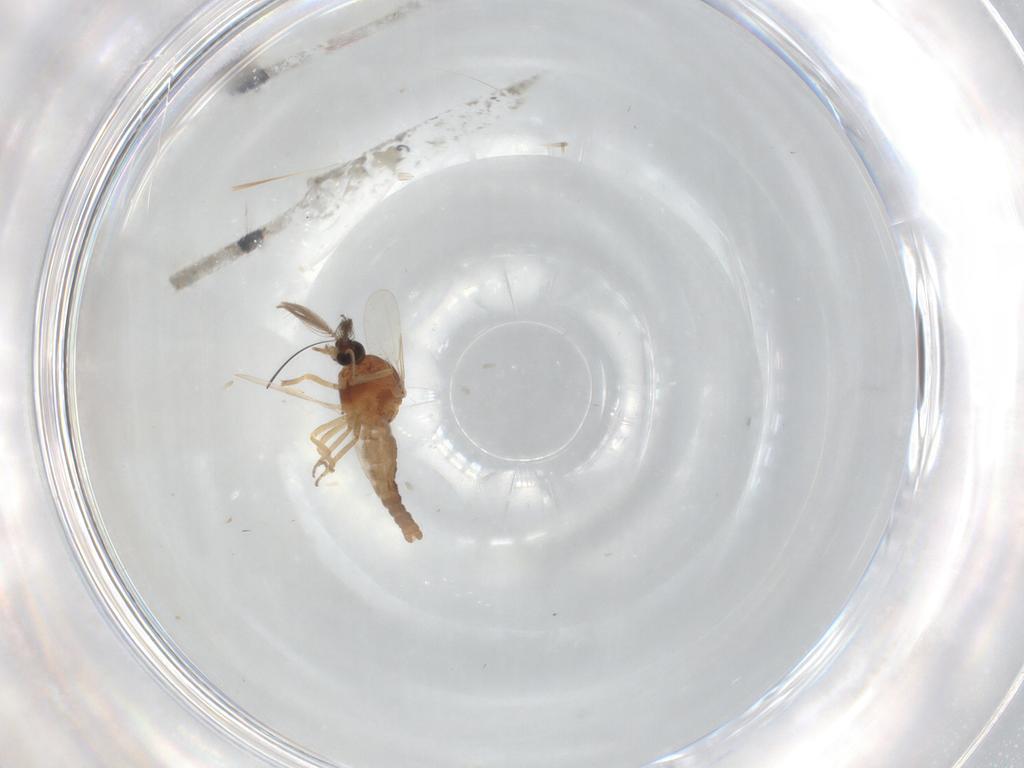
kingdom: Animalia
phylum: Arthropoda
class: Insecta
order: Diptera
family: Ceratopogonidae
